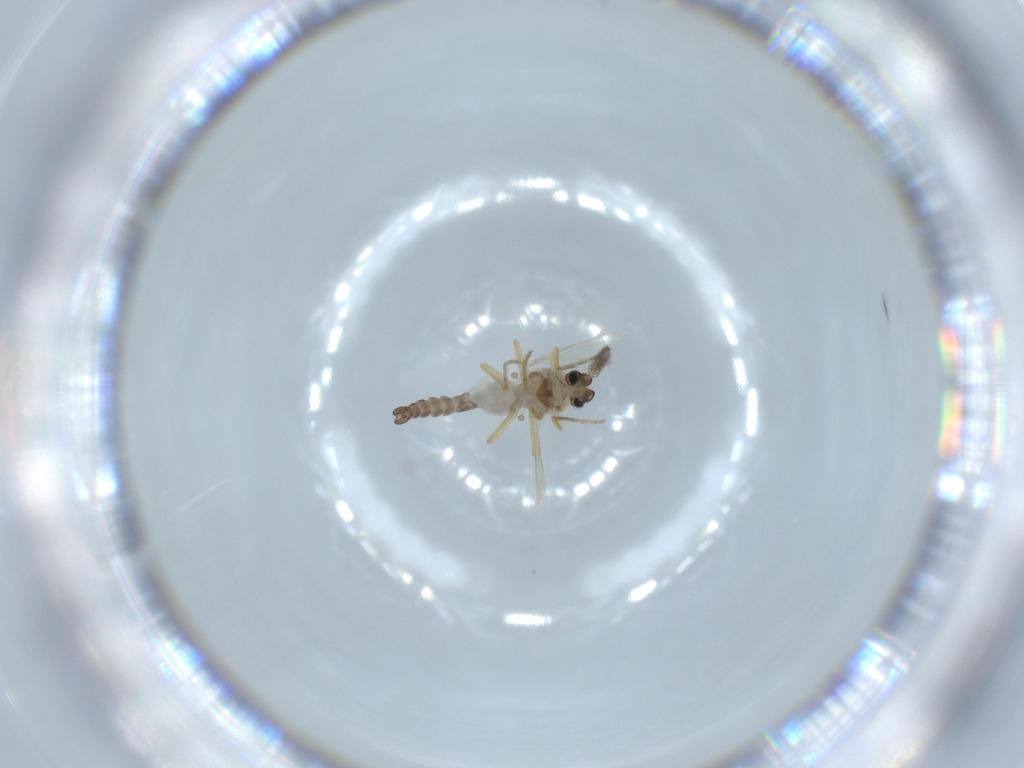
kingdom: Animalia
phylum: Arthropoda
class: Insecta
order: Diptera
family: Ceratopogonidae
